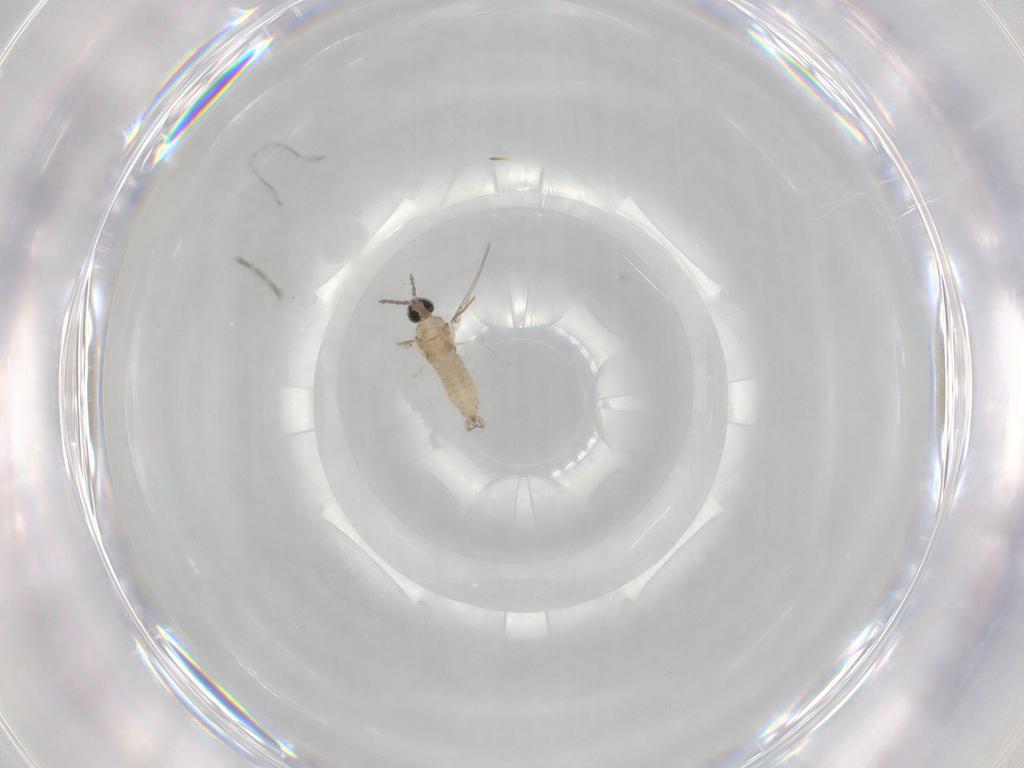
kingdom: Animalia
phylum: Arthropoda
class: Insecta
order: Diptera
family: Cecidomyiidae
